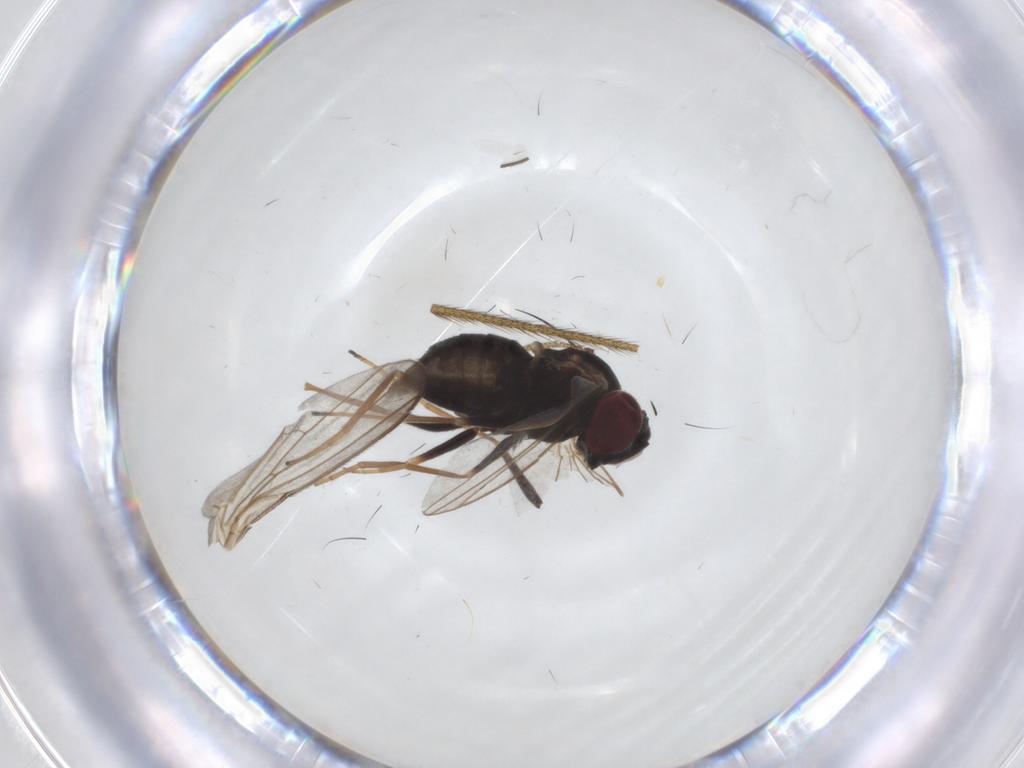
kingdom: Animalia
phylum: Arthropoda
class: Insecta
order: Diptera
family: Dolichopodidae
